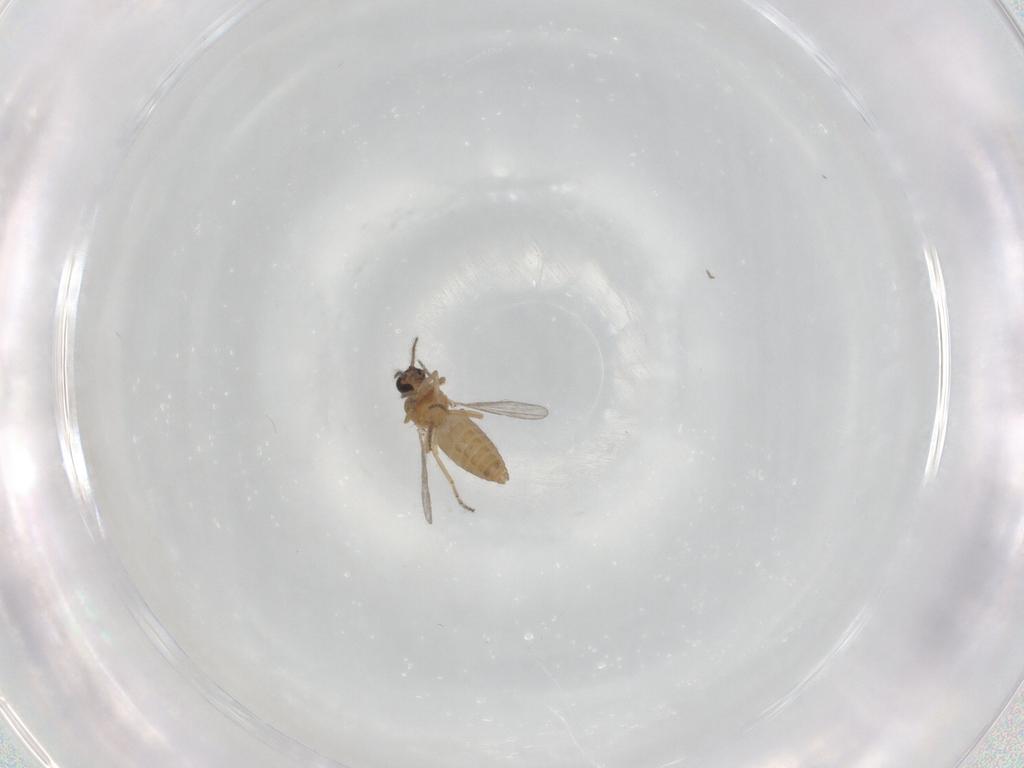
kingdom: Animalia
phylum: Arthropoda
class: Insecta
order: Diptera
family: Ceratopogonidae
